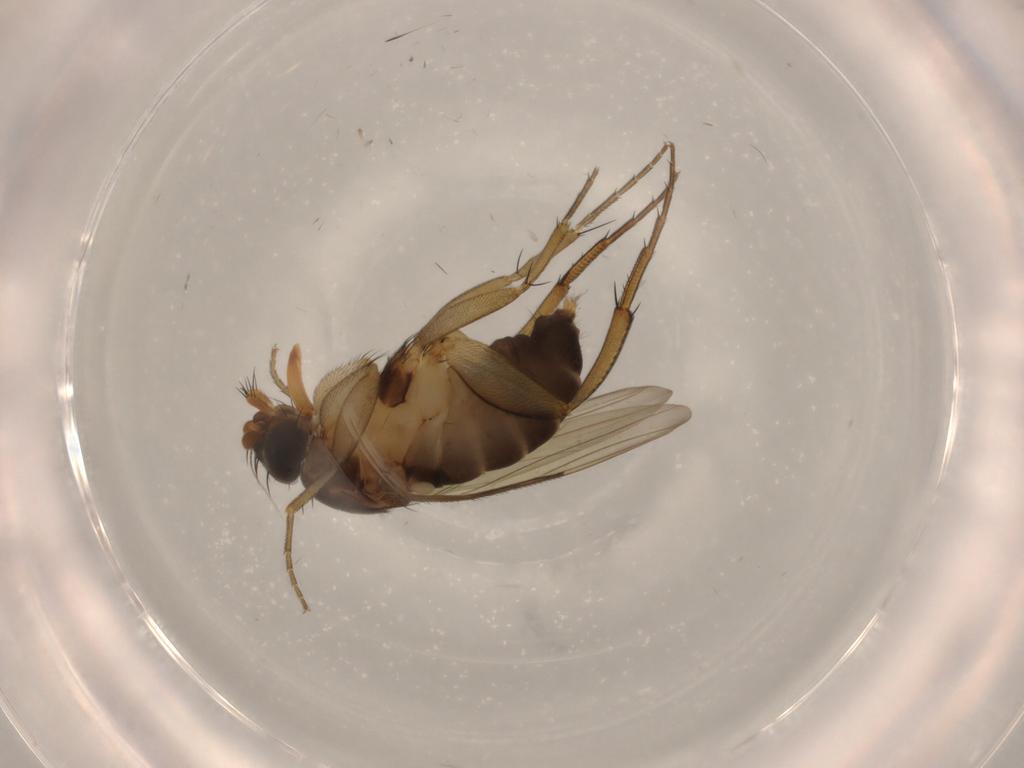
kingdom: Animalia
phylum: Arthropoda
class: Insecta
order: Diptera
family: Phoridae
